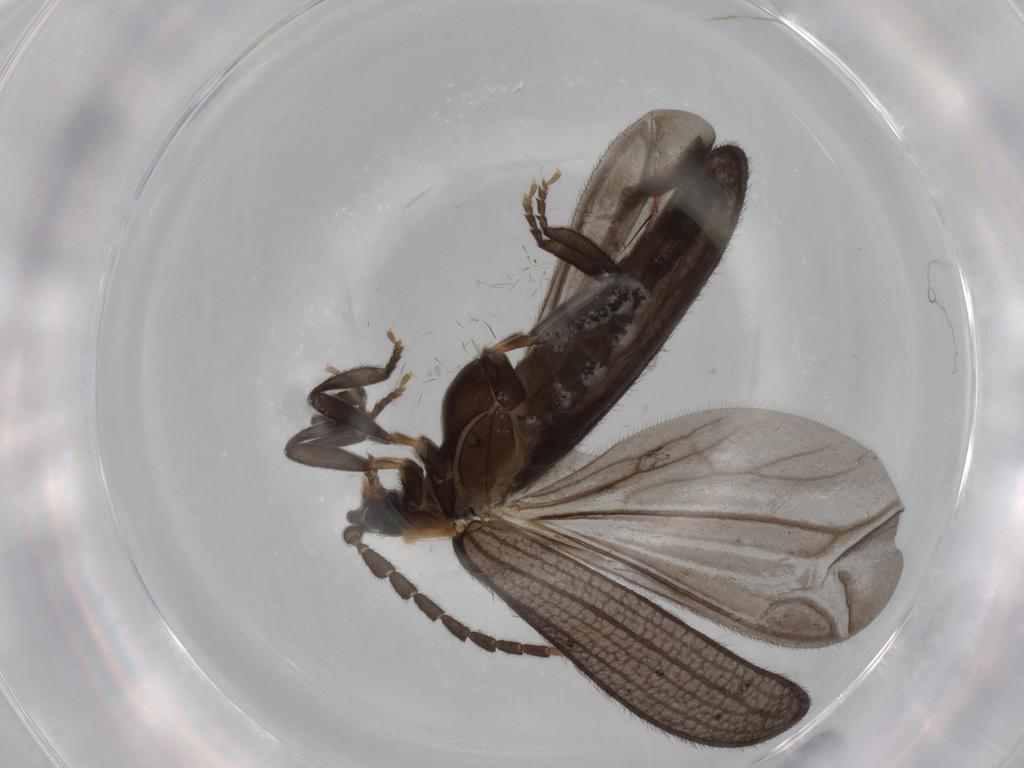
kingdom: Animalia
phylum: Arthropoda
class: Insecta
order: Coleoptera
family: Lycidae
